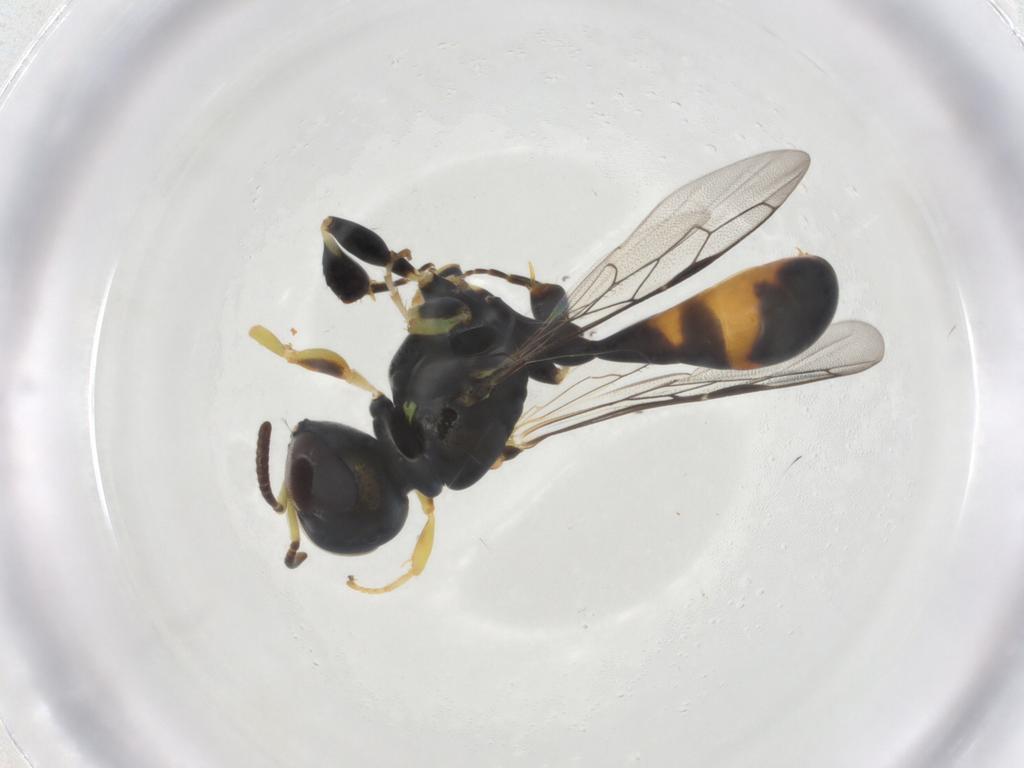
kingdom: Animalia
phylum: Arthropoda
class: Insecta
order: Hymenoptera
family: Crabronidae
